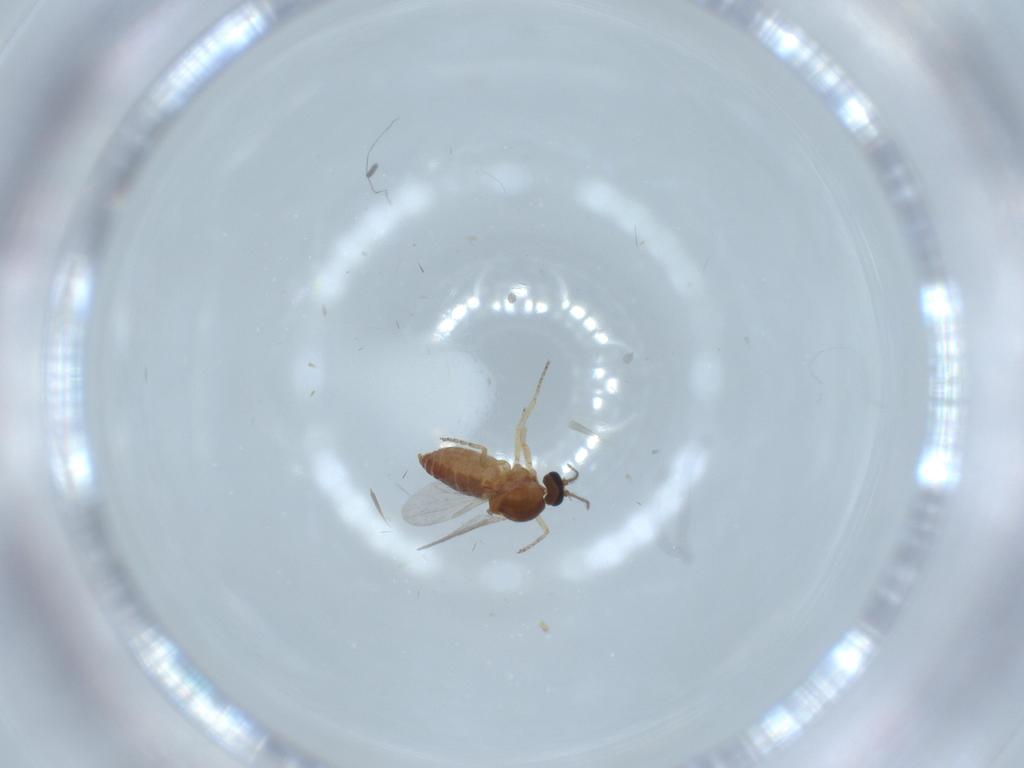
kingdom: Animalia
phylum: Arthropoda
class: Insecta
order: Diptera
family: Ceratopogonidae
